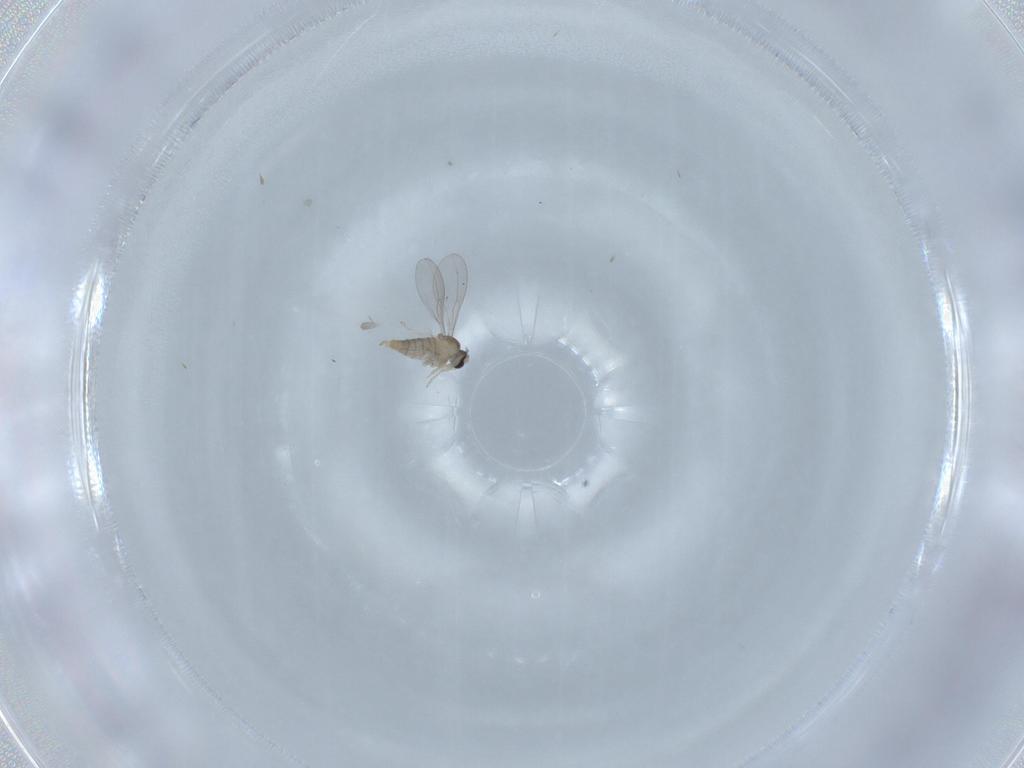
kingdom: Animalia
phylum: Arthropoda
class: Insecta
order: Diptera
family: Cecidomyiidae
